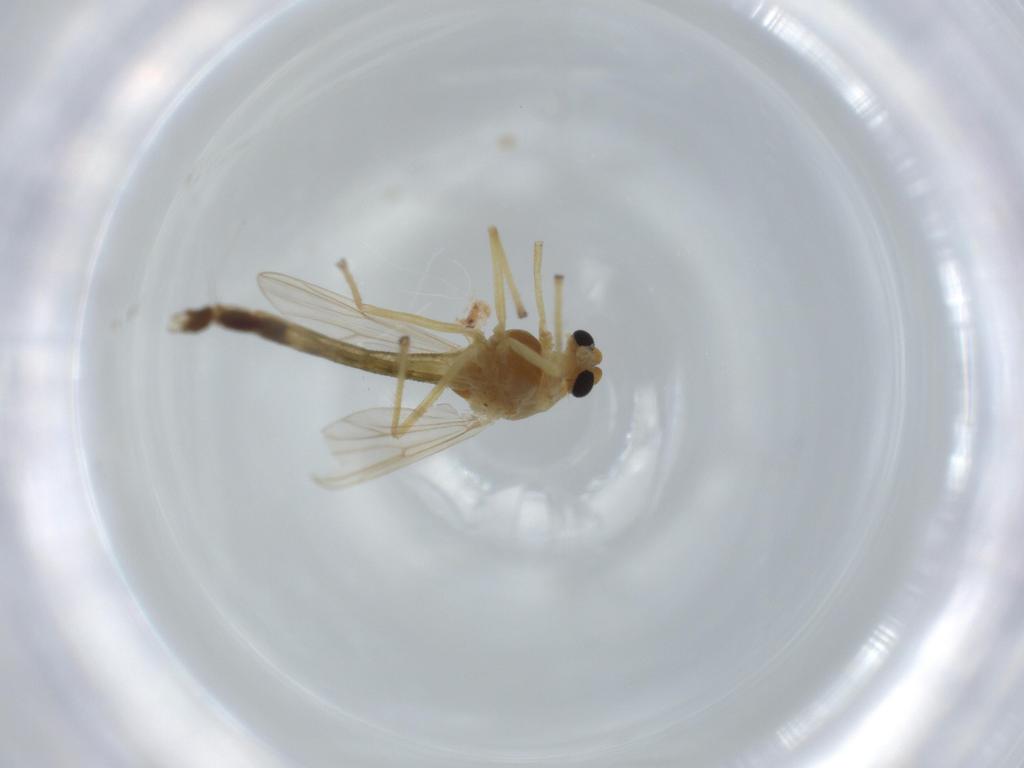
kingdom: Animalia
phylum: Arthropoda
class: Insecta
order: Diptera
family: Chironomidae
